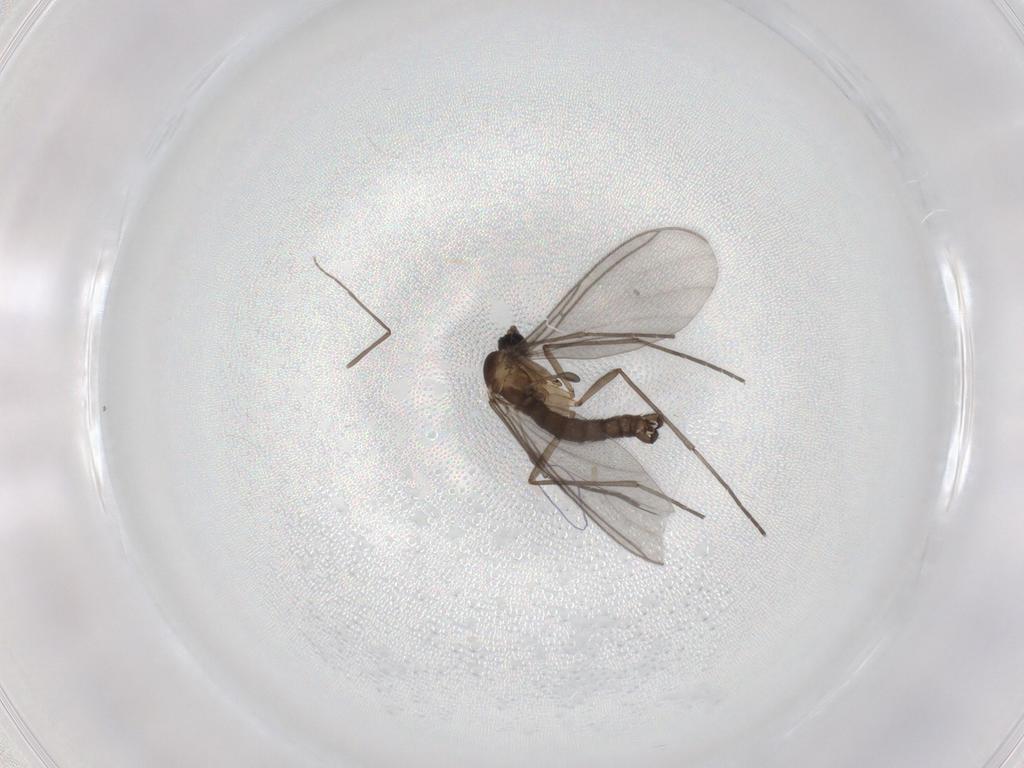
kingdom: Animalia
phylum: Arthropoda
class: Insecta
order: Diptera
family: Sciaridae
